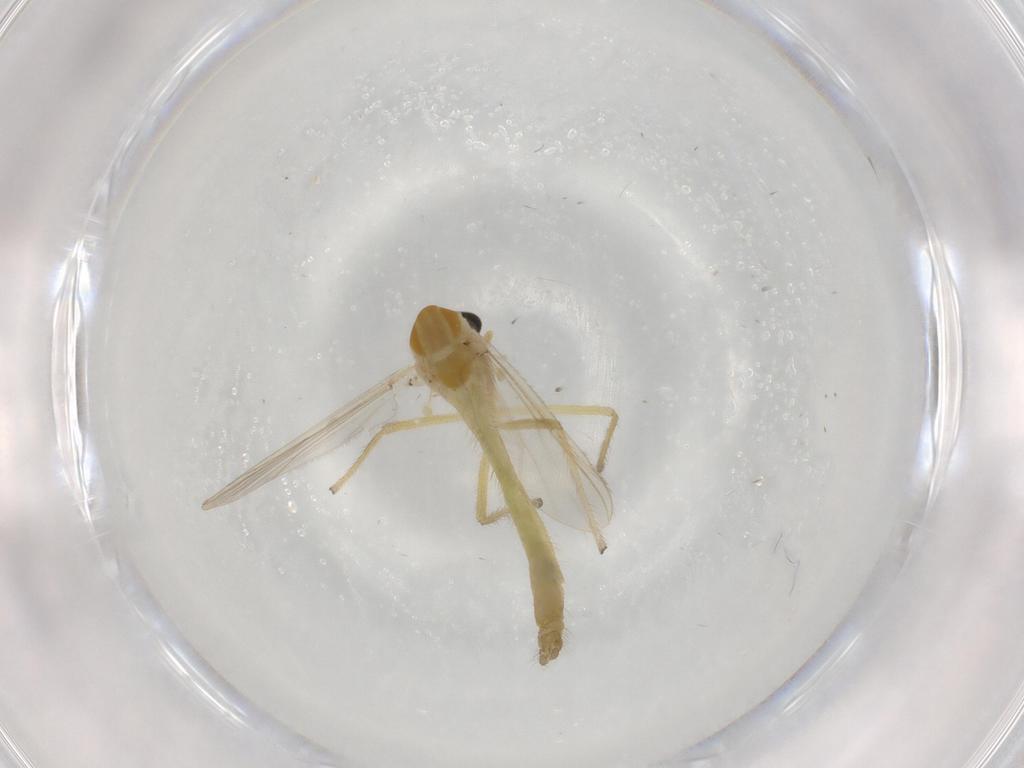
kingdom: Animalia
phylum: Arthropoda
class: Insecta
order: Diptera
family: Chironomidae
